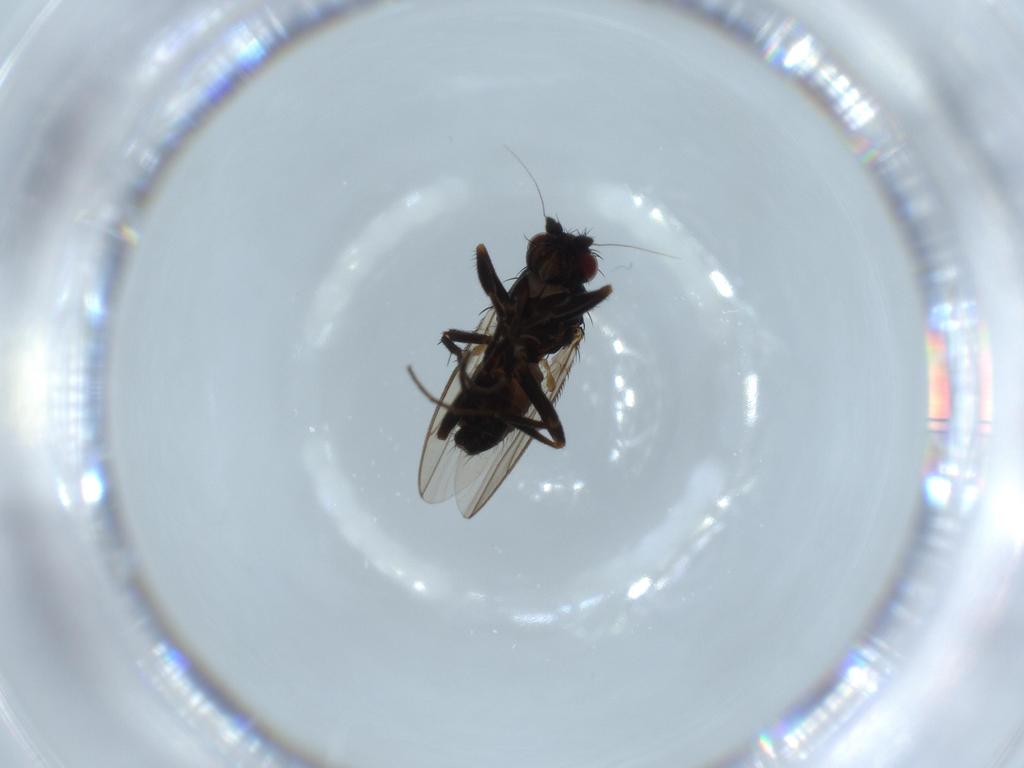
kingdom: Animalia
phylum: Arthropoda
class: Insecta
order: Diptera
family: Sphaeroceridae
